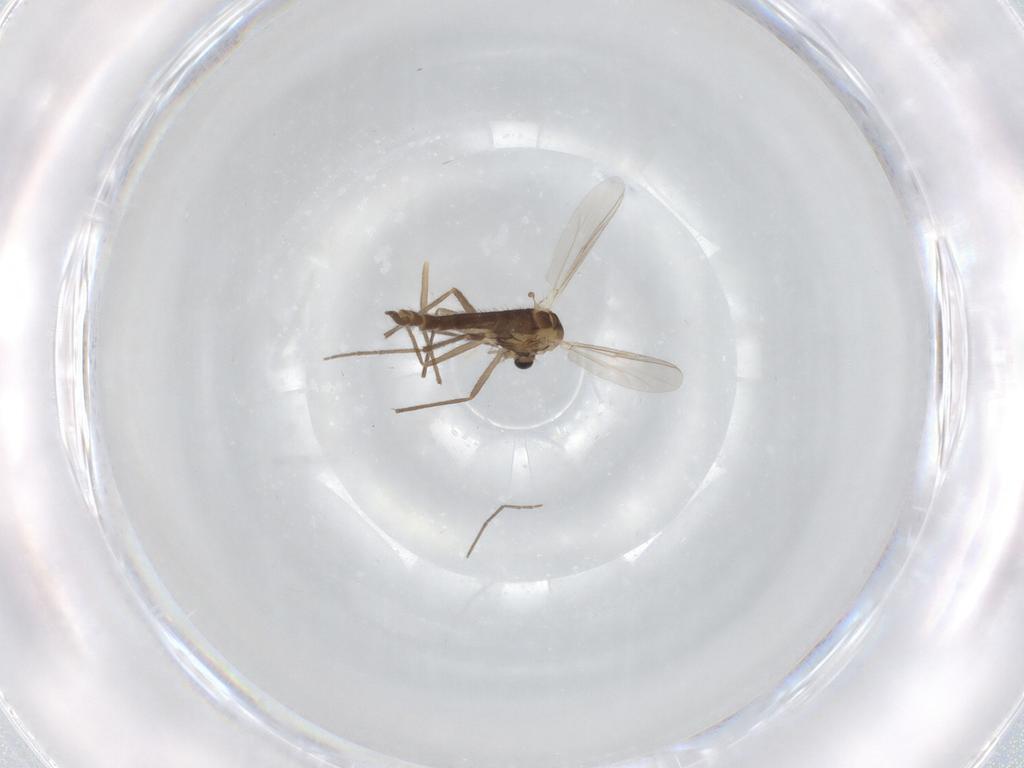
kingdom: Animalia
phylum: Arthropoda
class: Insecta
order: Diptera
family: Chironomidae
